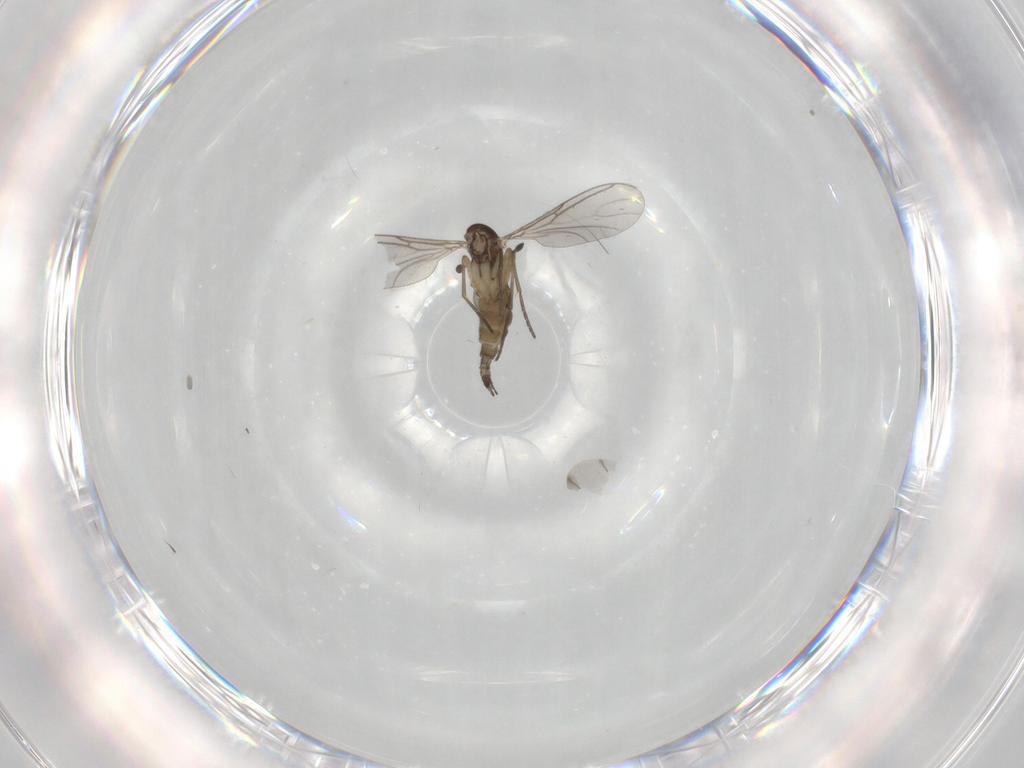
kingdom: Animalia
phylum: Arthropoda
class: Insecta
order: Diptera
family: Sciaridae
